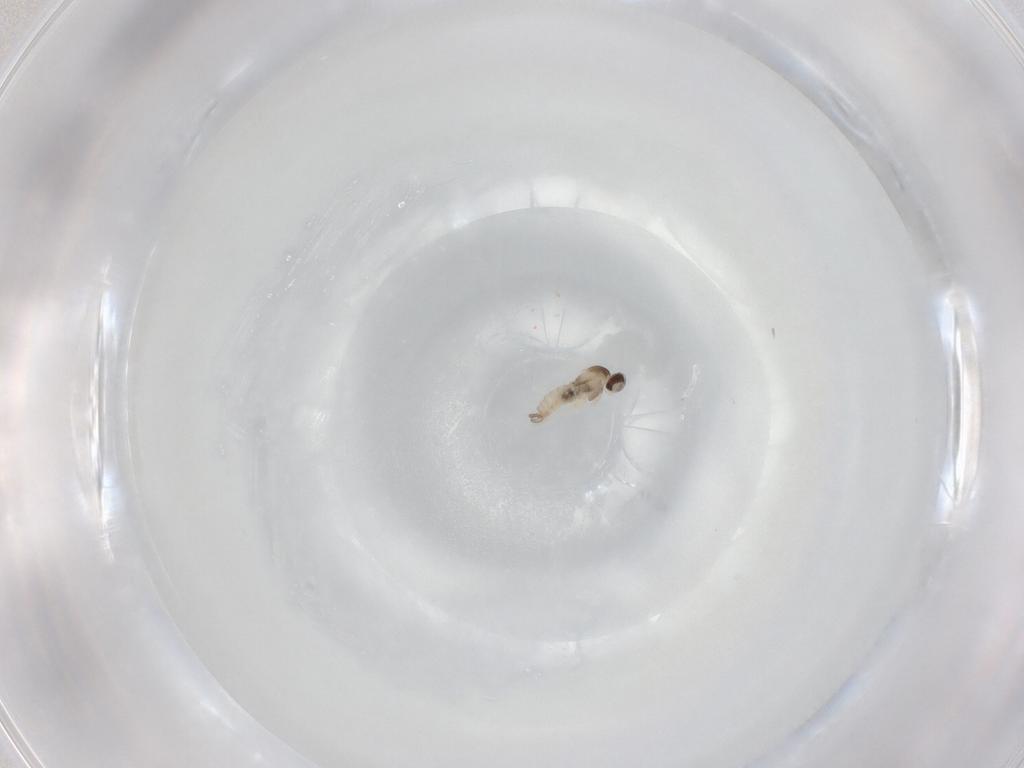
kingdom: Animalia
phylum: Arthropoda
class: Insecta
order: Diptera
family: Cecidomyiidae
